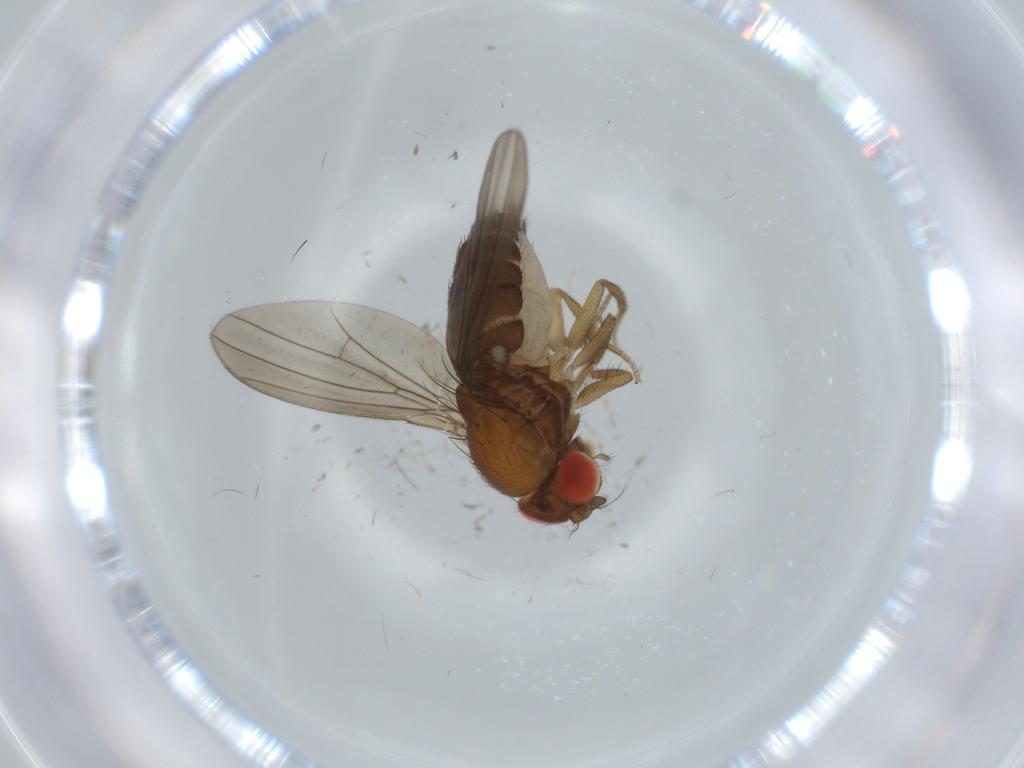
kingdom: Animalia
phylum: Arthropoda
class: Insecta
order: Diptera
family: Drosophilidae
